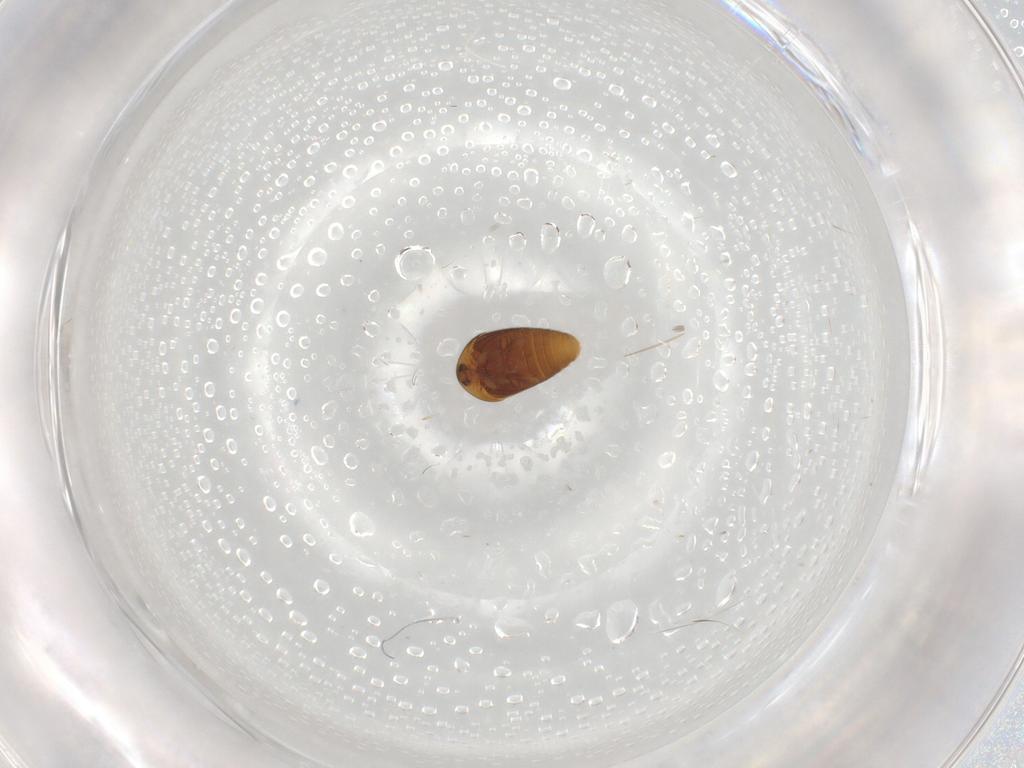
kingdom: Animalia
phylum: Arthropoda
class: Insecta
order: Coleoptera
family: Corylophidae
